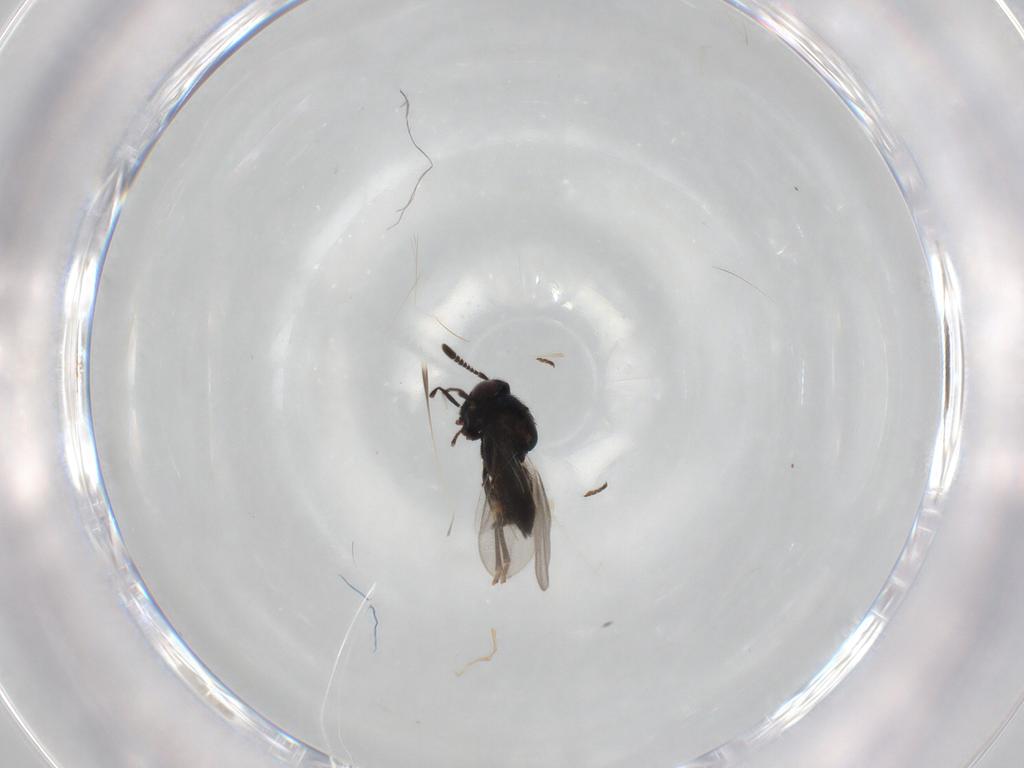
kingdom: Animalia
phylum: Arthropoda
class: Insecta
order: Hymenoptera
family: Encyrtidae
